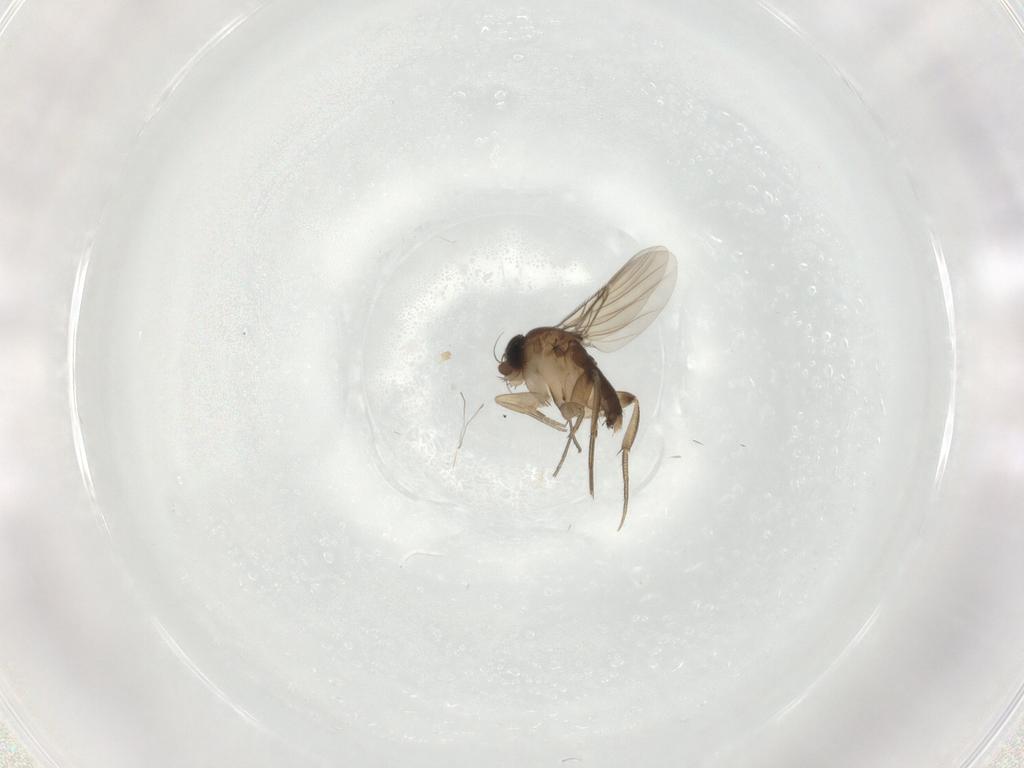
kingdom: Animalia
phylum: Arthropoda
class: Insecta
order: Diptera
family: Phoridae
